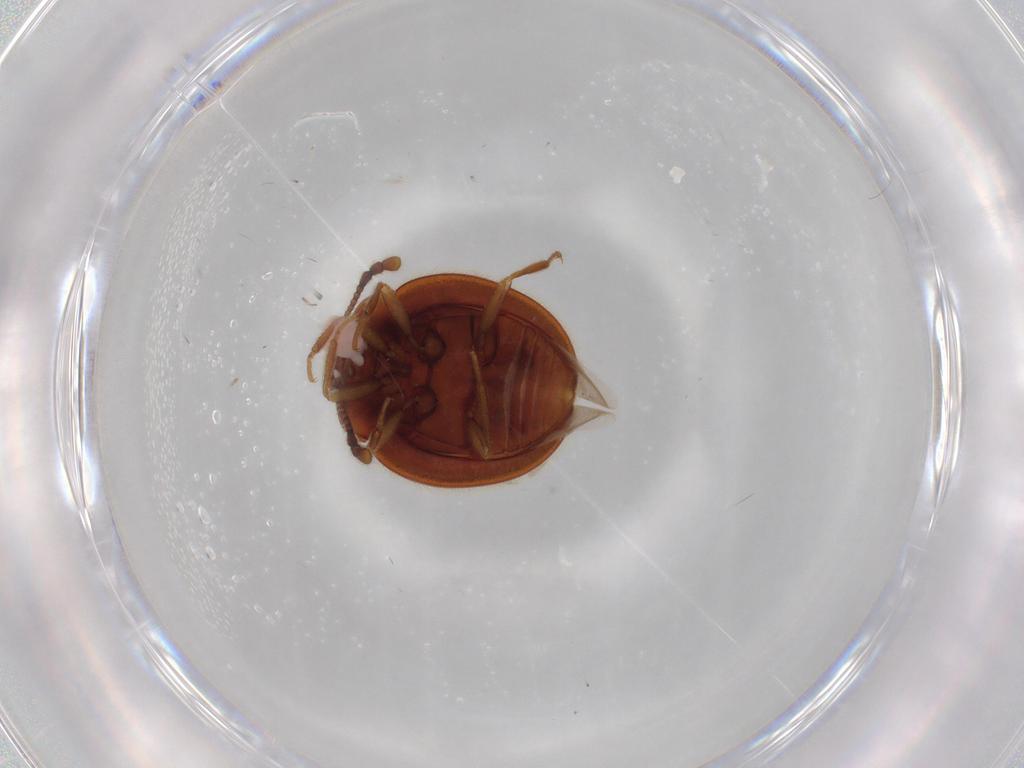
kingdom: Animalia
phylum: Arthropoda
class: Insecta
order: Coleoptera
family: Anamorphidae
